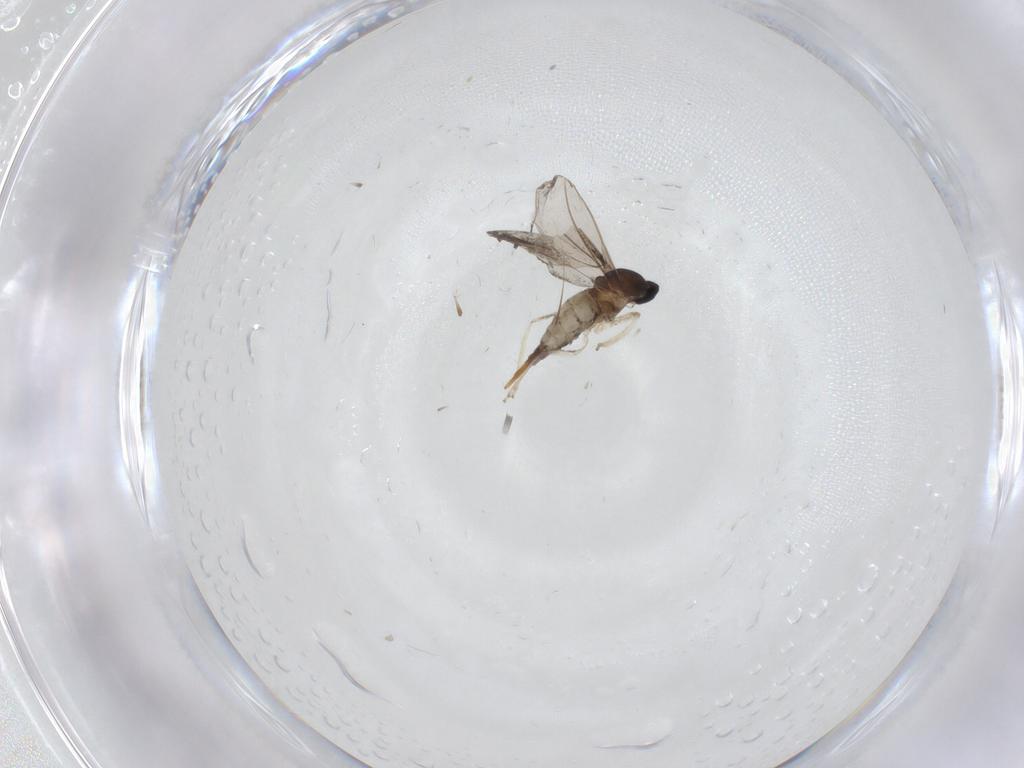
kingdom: Animalia
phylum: Arthropoda
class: Insecta
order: Diptera
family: Cecidomyiidae
